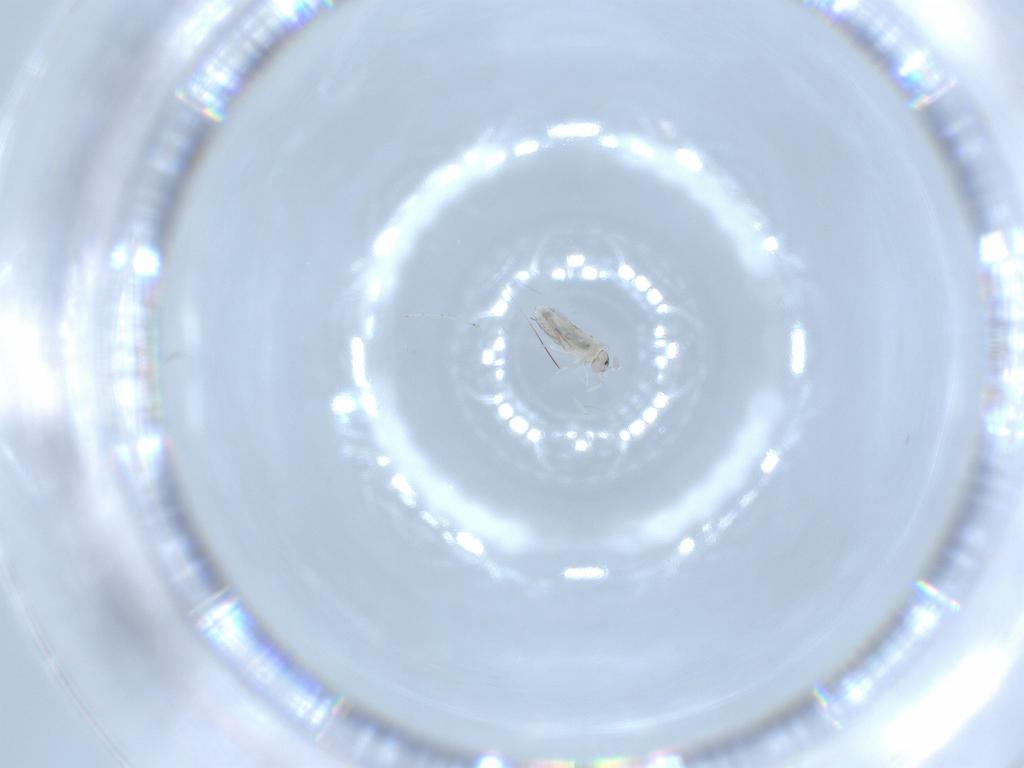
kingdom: Animalia
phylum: Arthropoda
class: Collembola
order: Entomobryomorpha
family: Entomobryidae
